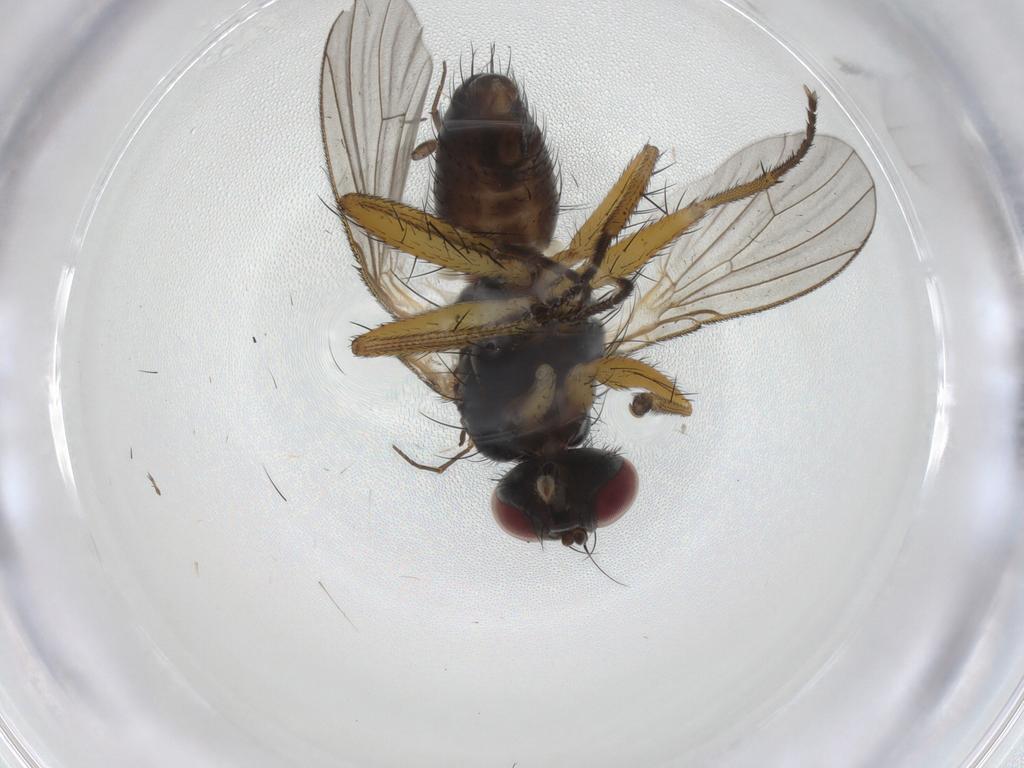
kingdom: Animalia
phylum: Arthropoda
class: Insecta
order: Diptera
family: Muscidae
